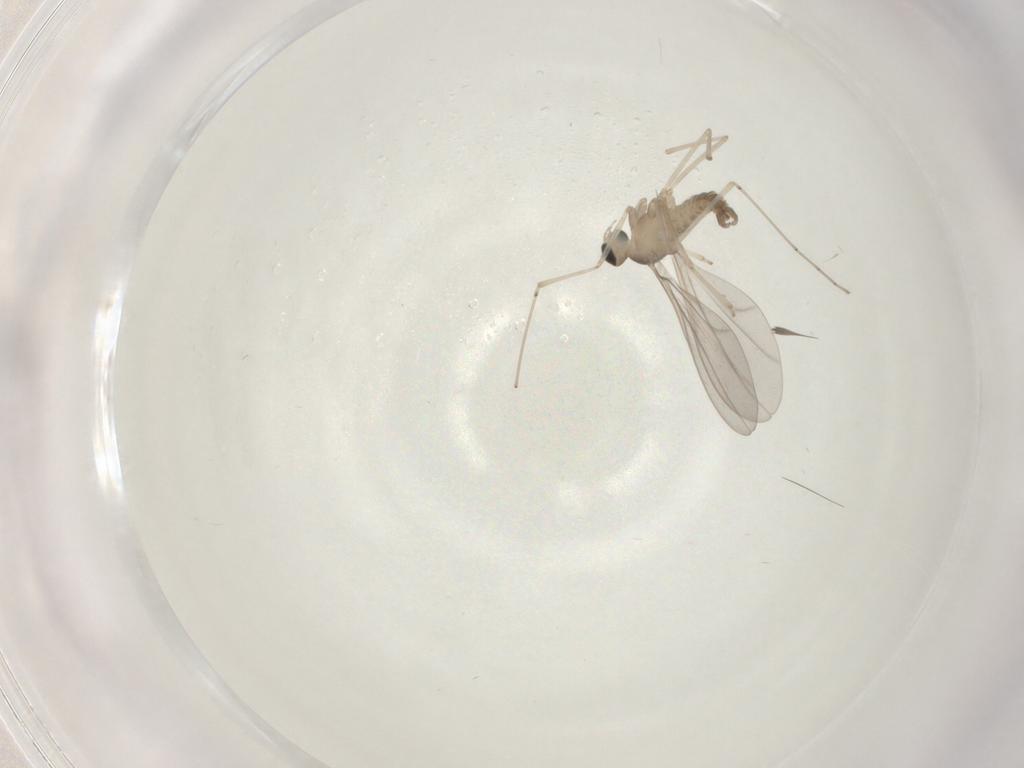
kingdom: Animalia
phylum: Arthropoda
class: Insecta
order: Diptera
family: Cecidomyiidae
